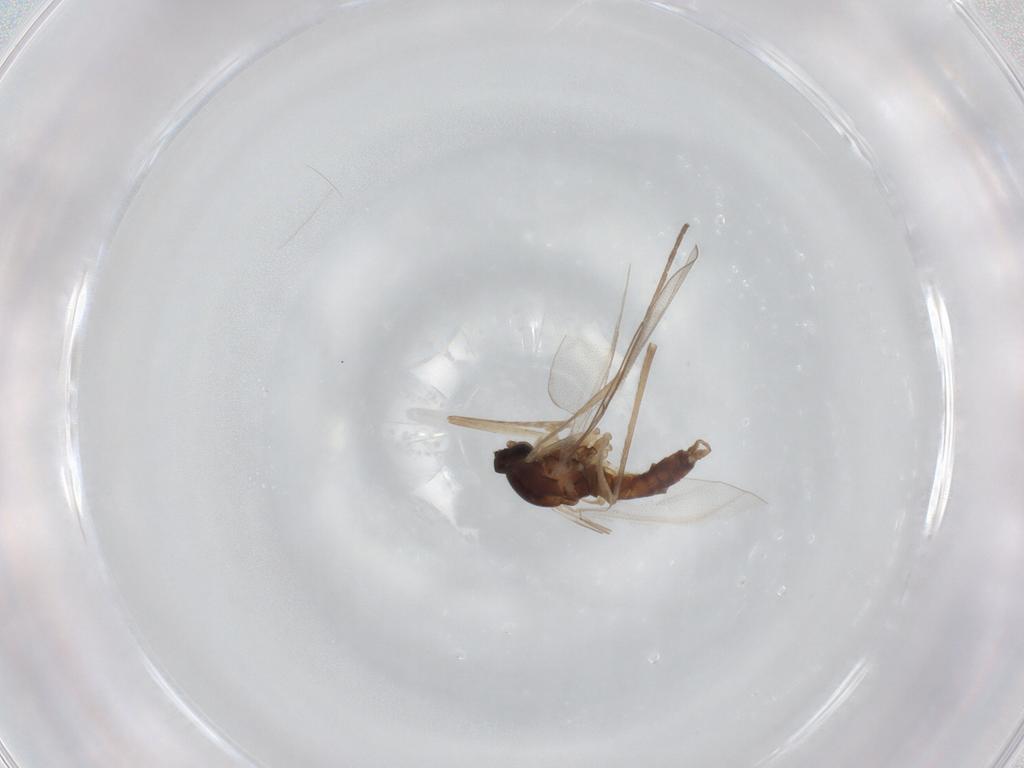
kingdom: Animalia
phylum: Arthropoda
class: Insecta
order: Diptera
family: Cecidomyiidae
